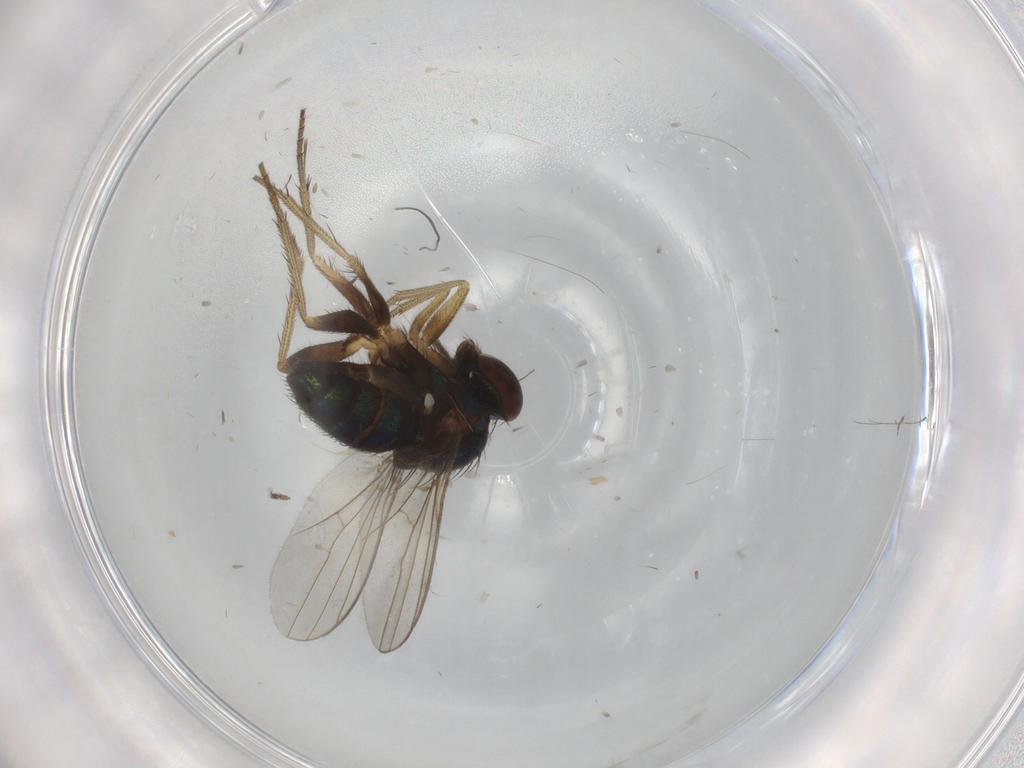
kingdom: Animalia
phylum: Arthropoda
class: Insecta
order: Diptera
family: Ceratopogonidae
